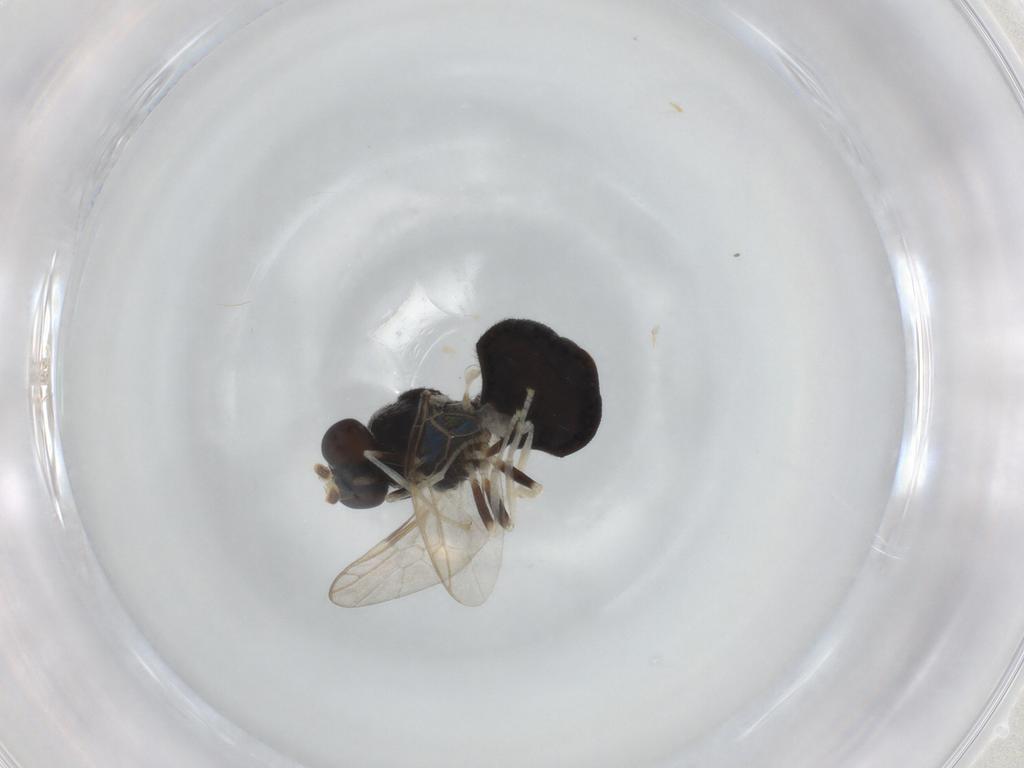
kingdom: Animalia
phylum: Arthropoda
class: Insecta
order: Diptera
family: Stratiomyidae
